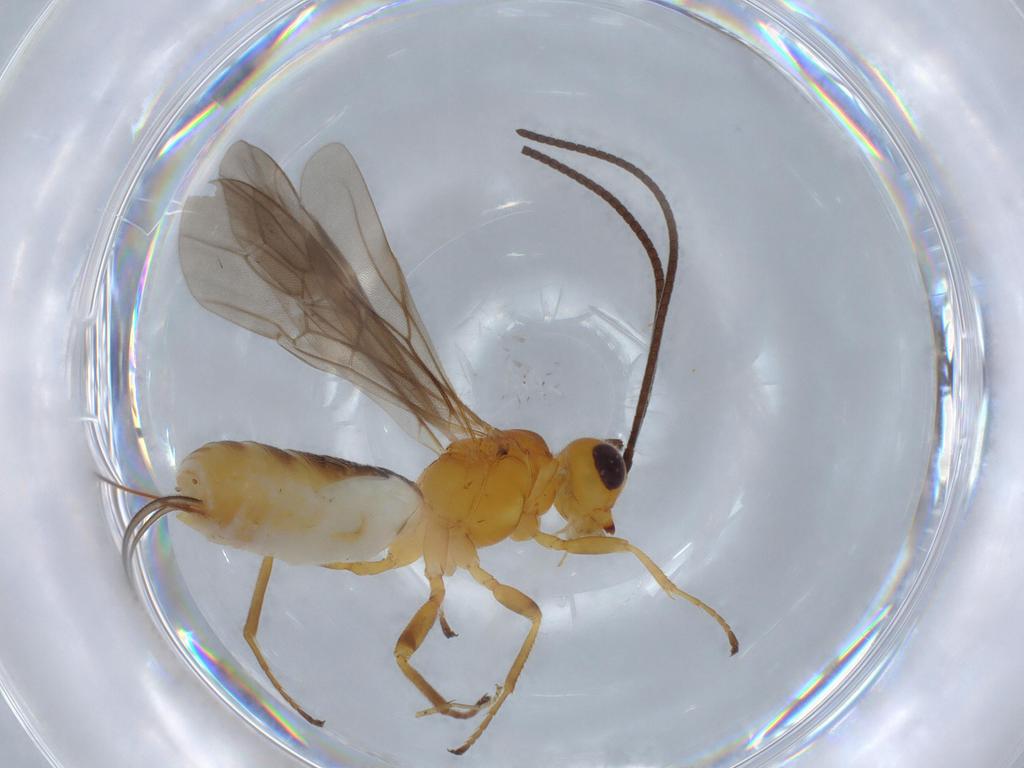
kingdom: Animalia
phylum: Arthropoda
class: Insecta
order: Hymenoptera
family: Braconidae
